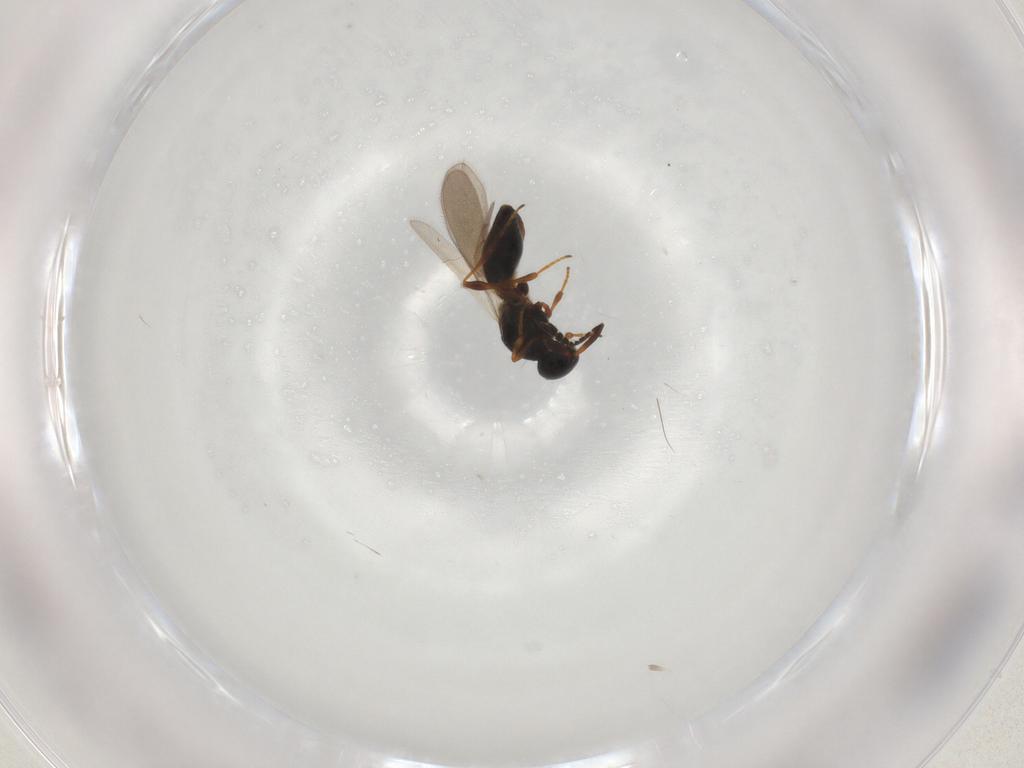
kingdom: Animalia
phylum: Arthropoda
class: Insecta
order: Hymenoptera
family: Platygastridae
